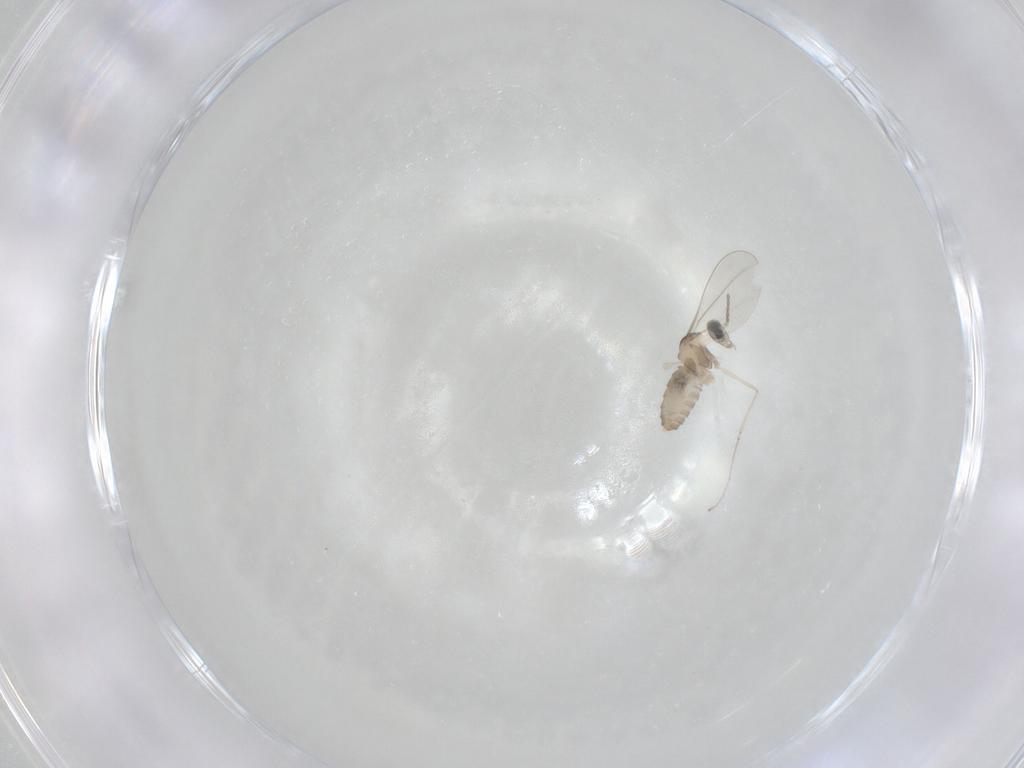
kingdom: Animalia
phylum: Arthropoda
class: Insecta
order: Diptera
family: Cecidomyiidae
